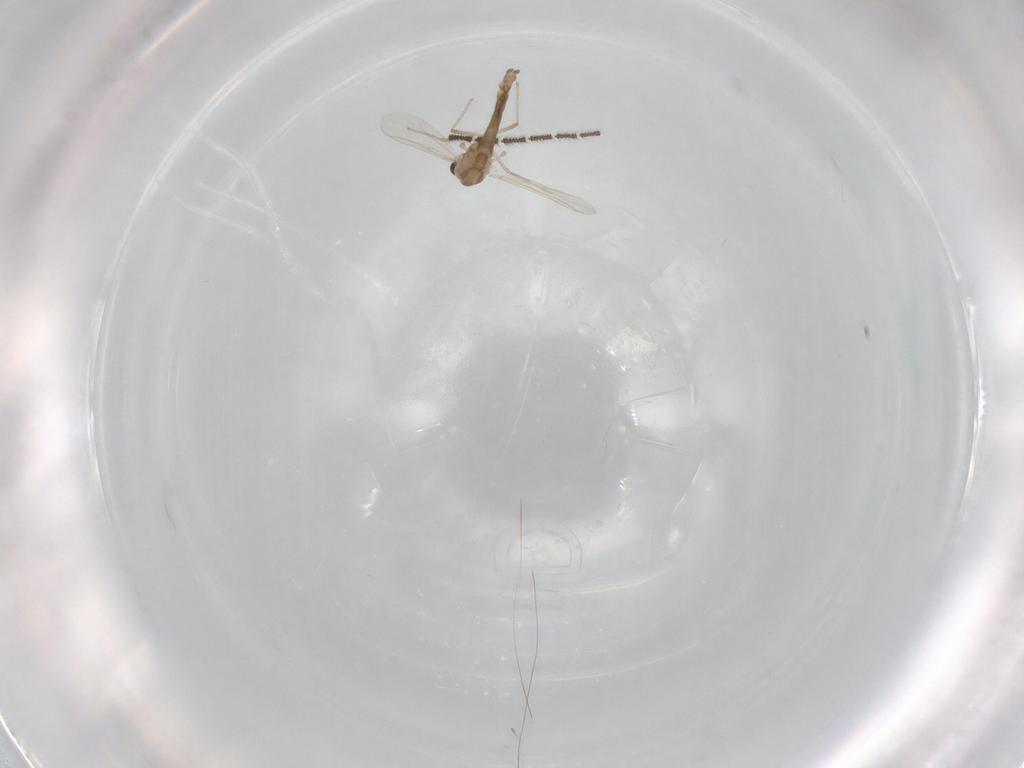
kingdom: Animalia
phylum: Arthropoda
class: Insecta
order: Diptera
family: Chironomidae
